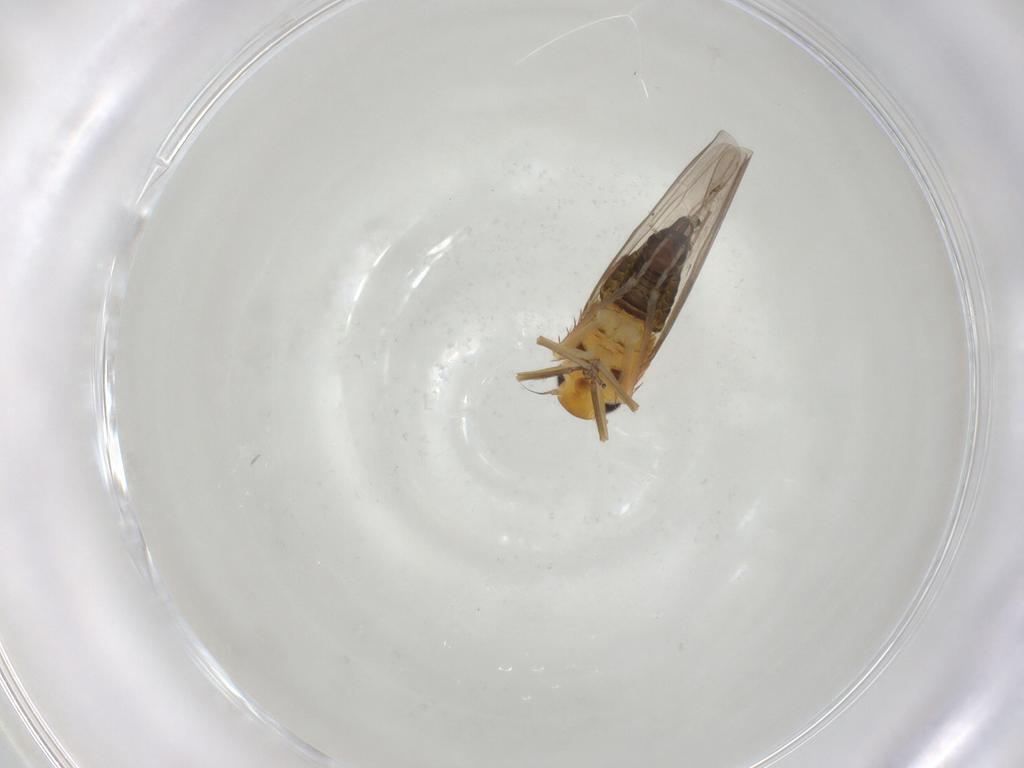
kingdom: Animalia
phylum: Arthropoda
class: Insecta
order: Hemiptera
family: Cicadellidae
